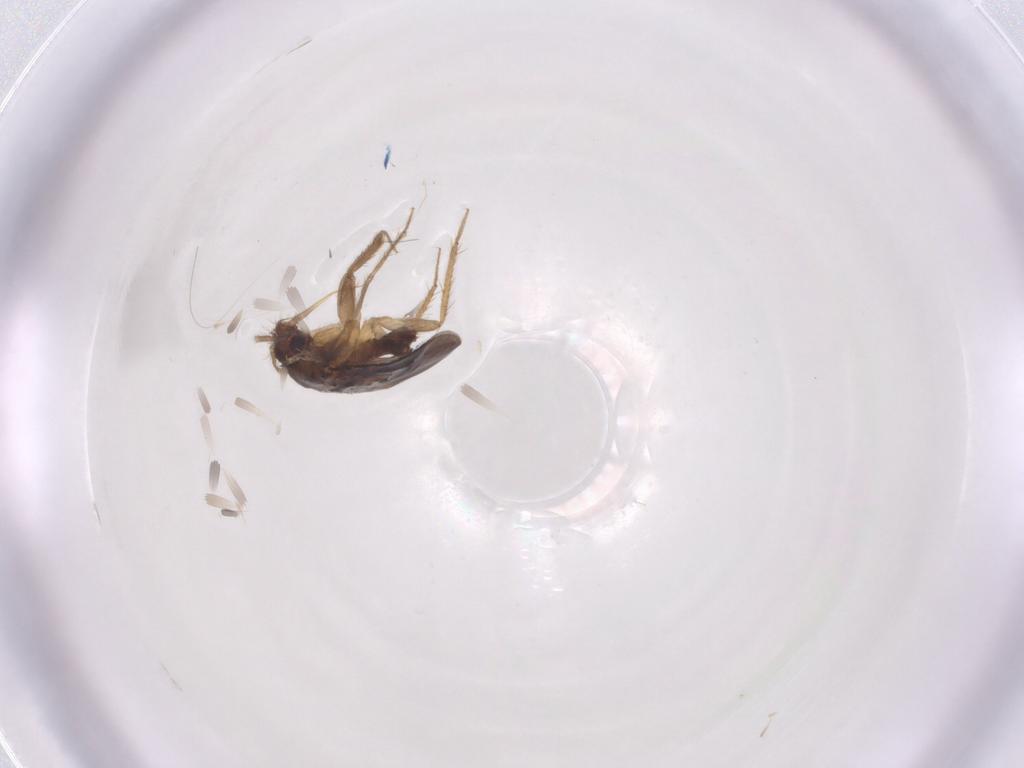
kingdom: Animalia
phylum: Arthropoda
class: Insecta
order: Hemiptera
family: Ceratocombidae
